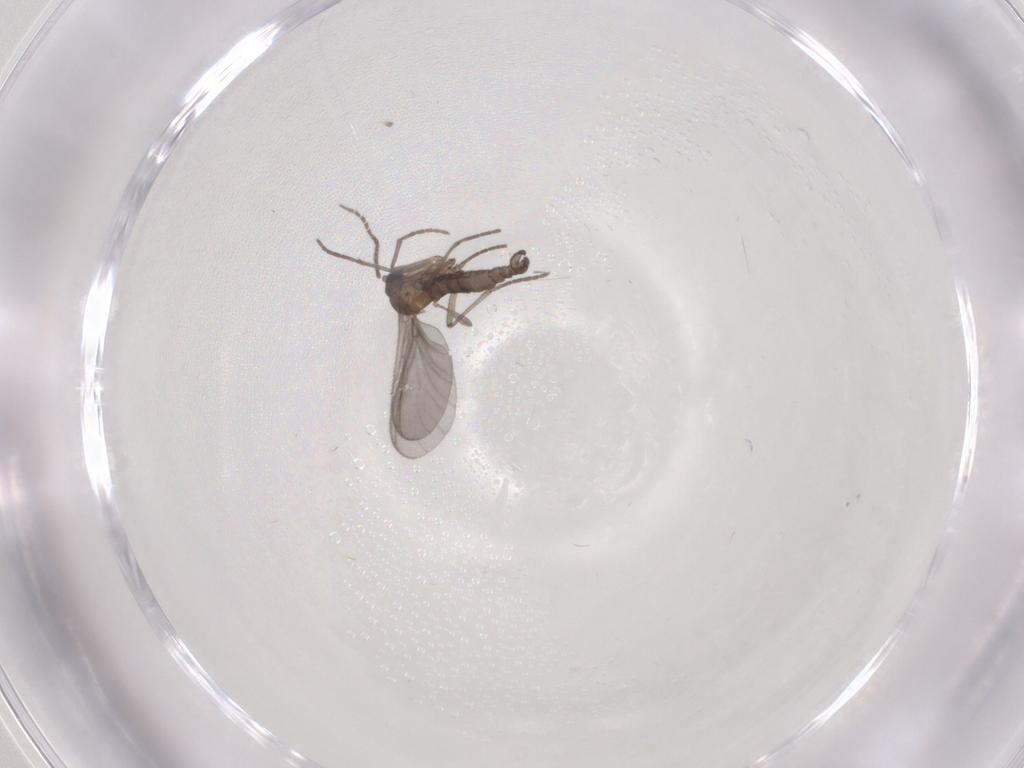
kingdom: Animalia
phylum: Arthropoda
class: Insecta
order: Diptera
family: Sciaridae
